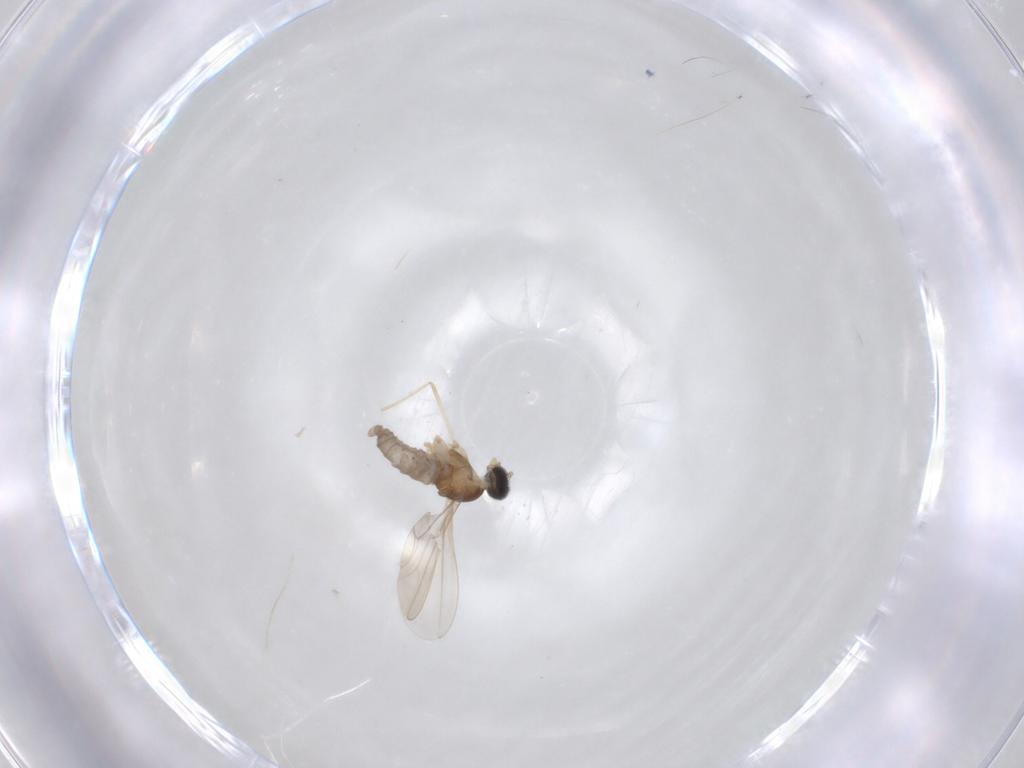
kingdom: Animalia
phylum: Arthropoda
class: Insecta
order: Diptera
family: Cecidomyiidae
